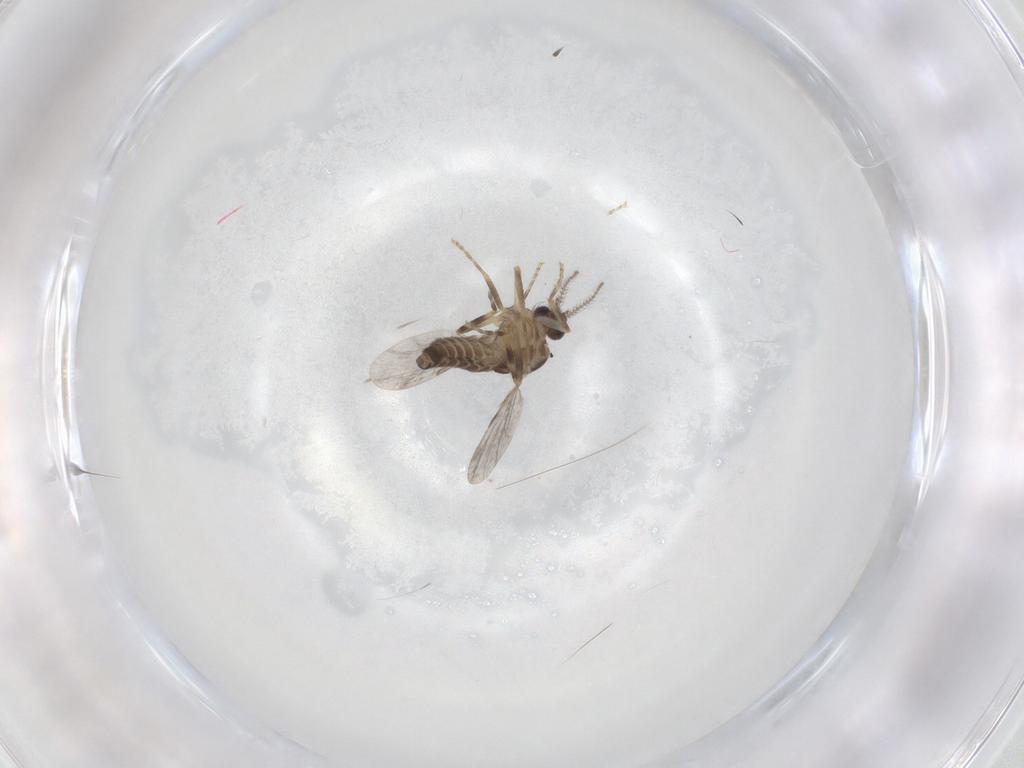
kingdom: Animalia
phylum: Arthropoda
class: Insecta
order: Diptera
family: Ceratopogonidae
